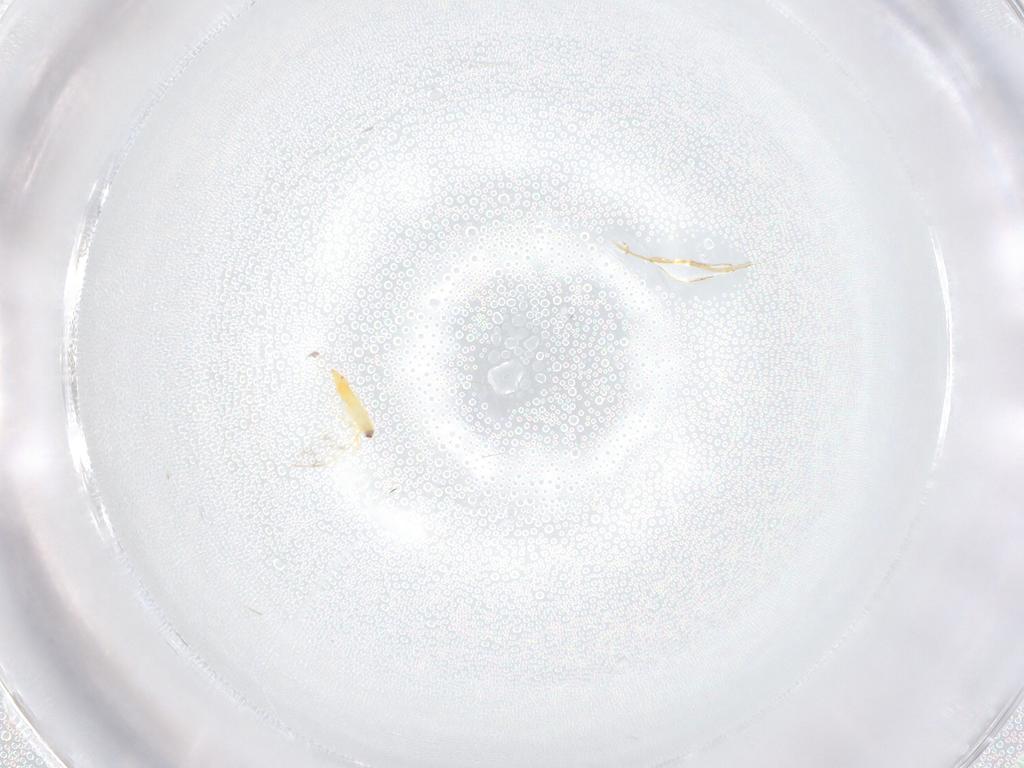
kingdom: Animalia
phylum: Arthropoda
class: Insecta
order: Hemiptera
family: Aleyrodidae
